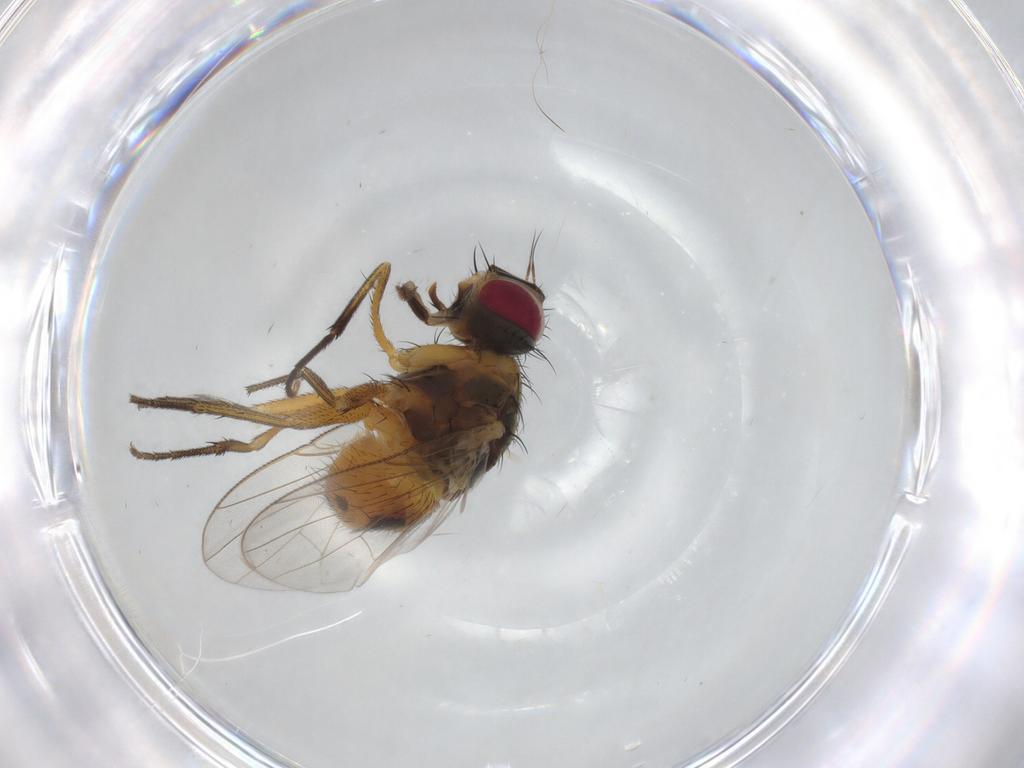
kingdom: Animalia
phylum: Arthropoda
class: Insecta
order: Diptera
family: Muscidae
